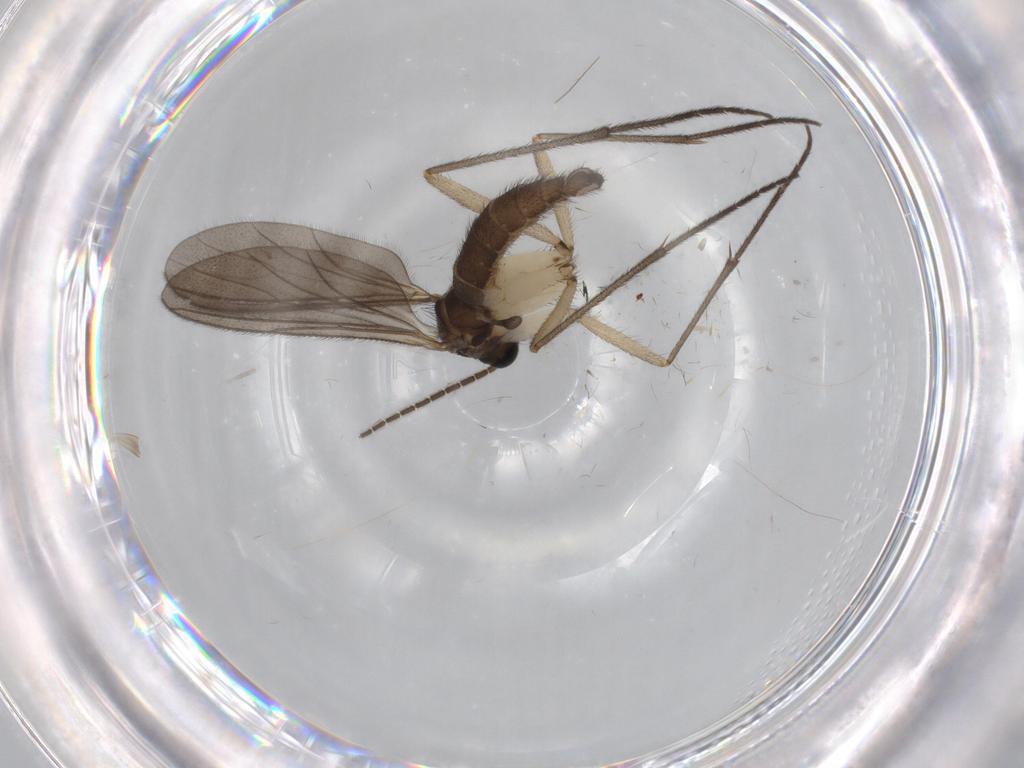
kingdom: Animalia
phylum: Arthropoda
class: Insecta
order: Diptera
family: Sciaridae
